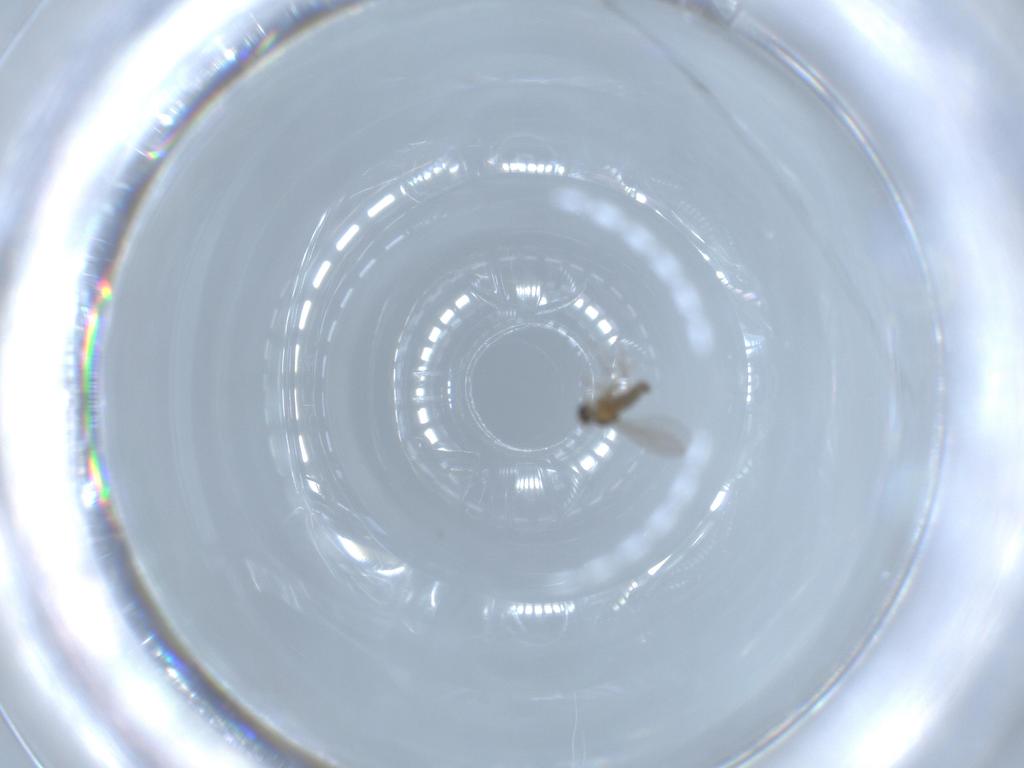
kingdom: Animalia
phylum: Arthropoda
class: Insecta
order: Diptera
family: Cecidomyiidae
